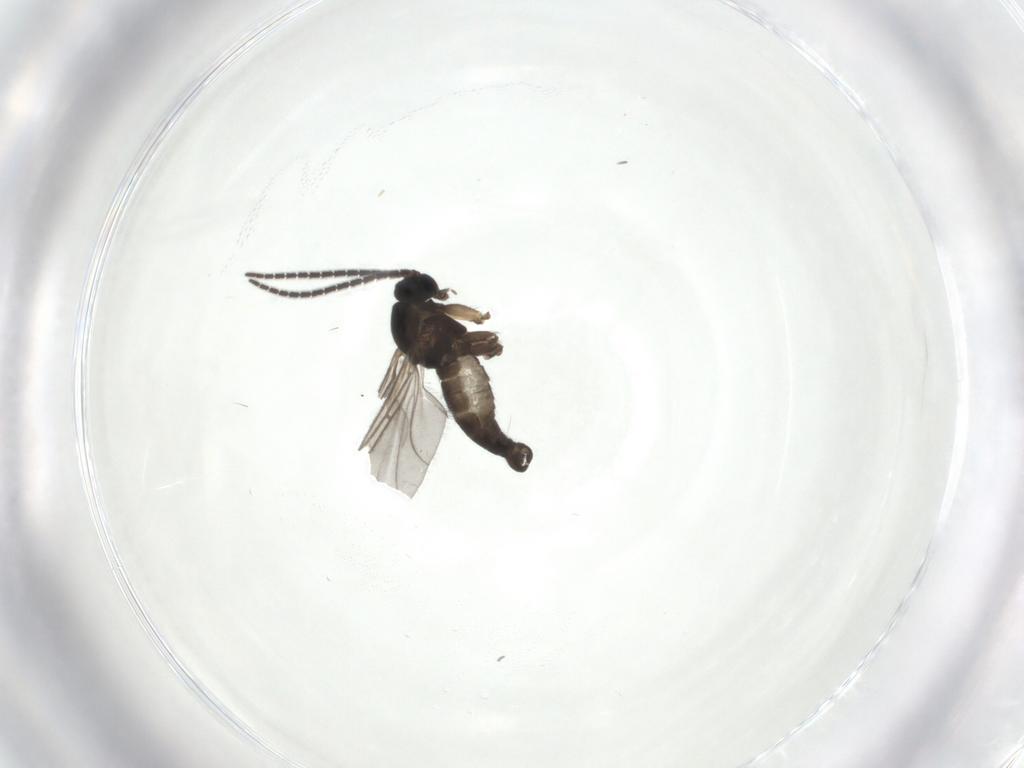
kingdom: Animalia
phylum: Arthropoda
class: Insecta
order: Diptera
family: Sciaridae
